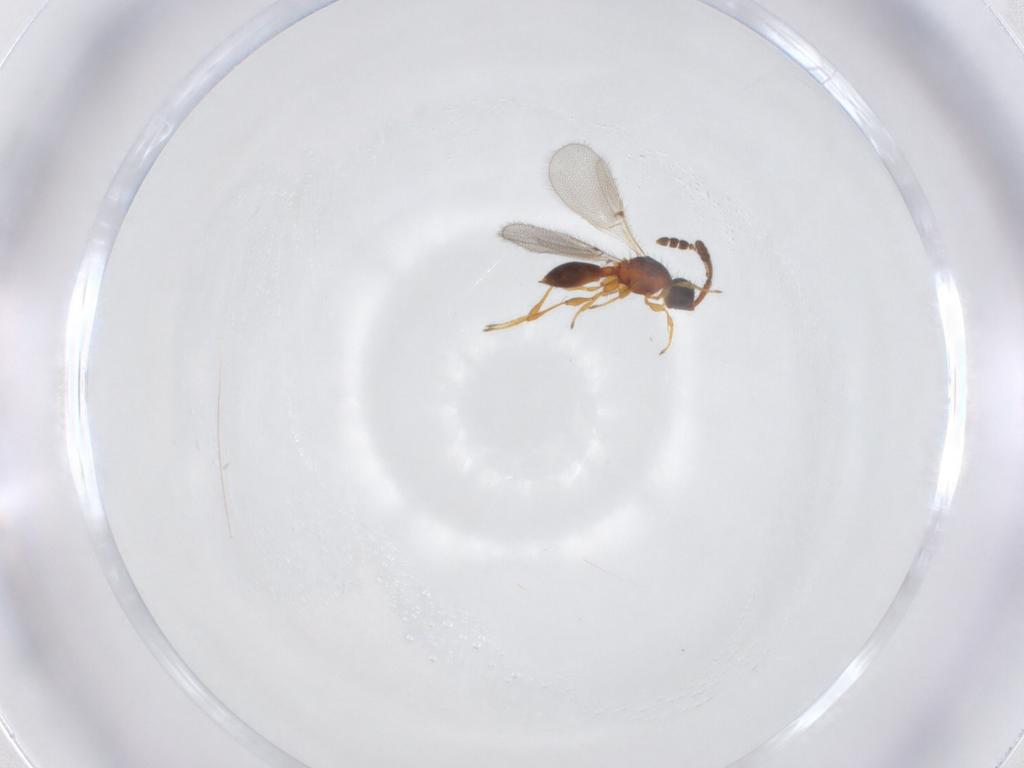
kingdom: Animalia
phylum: Arthropoda
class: Insecta
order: Hymenoptera
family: Diapriidae
